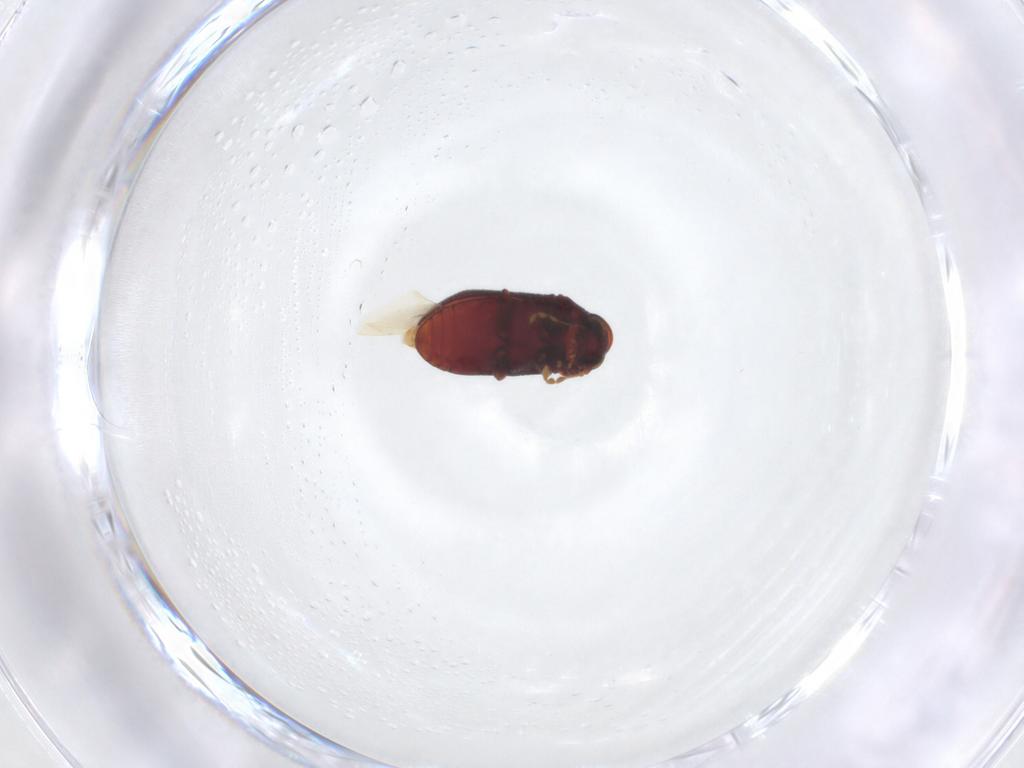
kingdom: Animalia
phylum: Arthropoda
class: Insecta
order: Coleoptera
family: Ptinidae
